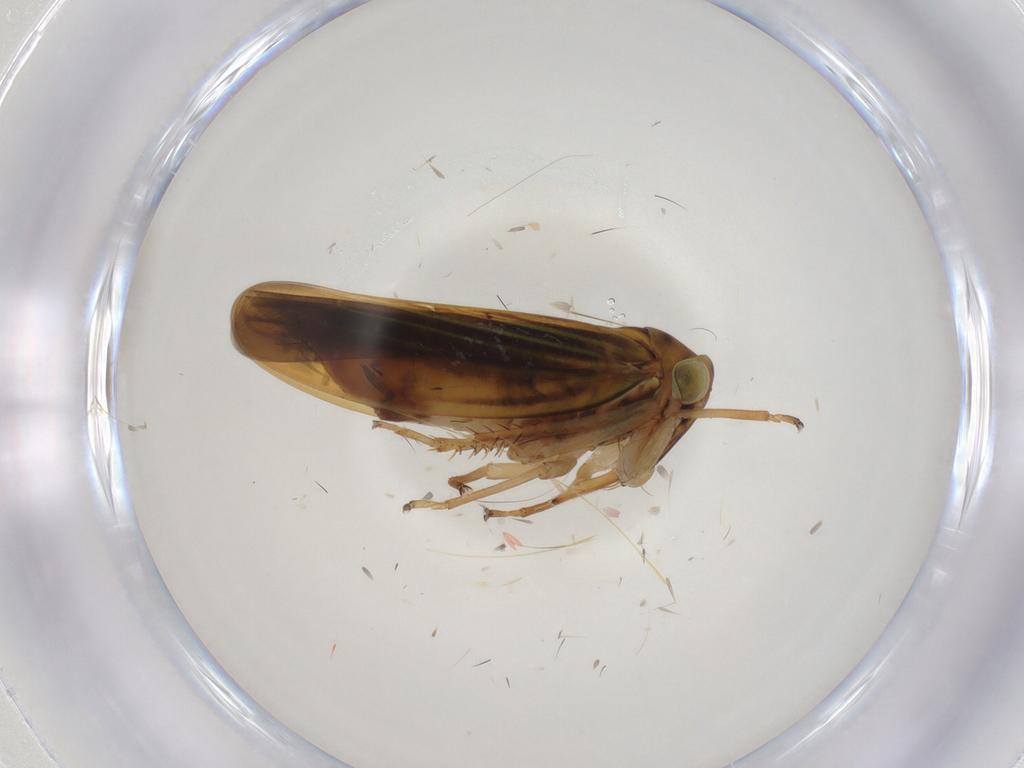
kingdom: Animalia
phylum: Arthropoda
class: Insecta
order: Hemiptera
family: Cicadellidae
